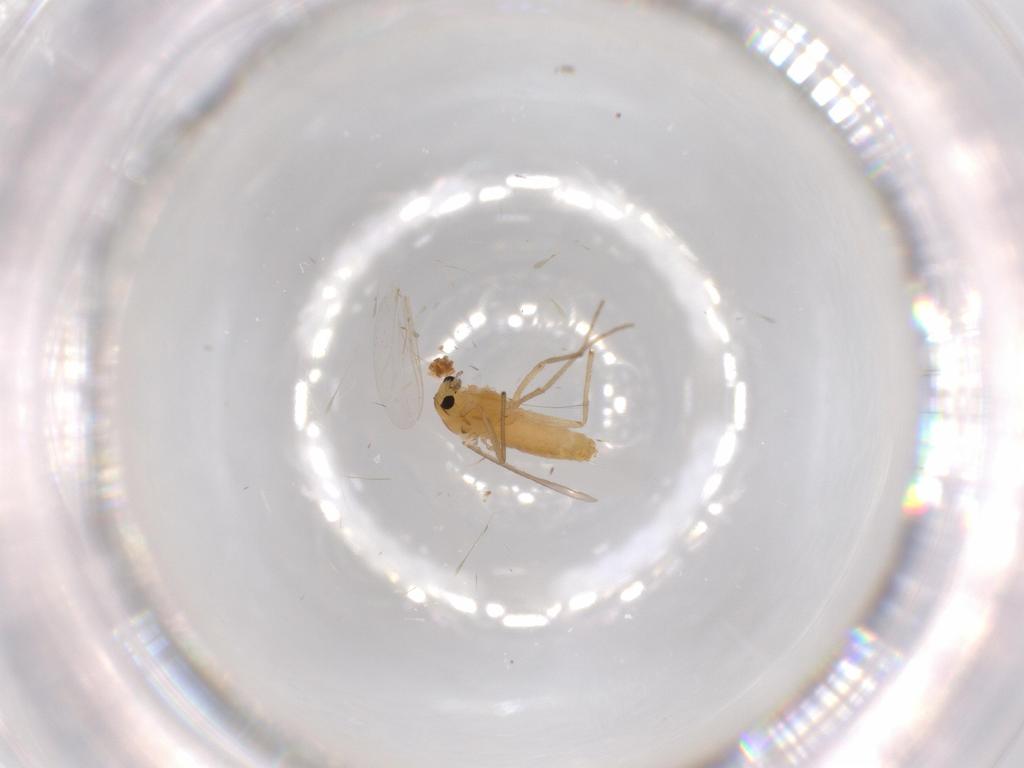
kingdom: Animalia
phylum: Arthropoda
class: Insecta
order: Diptera
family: Chironomidae
